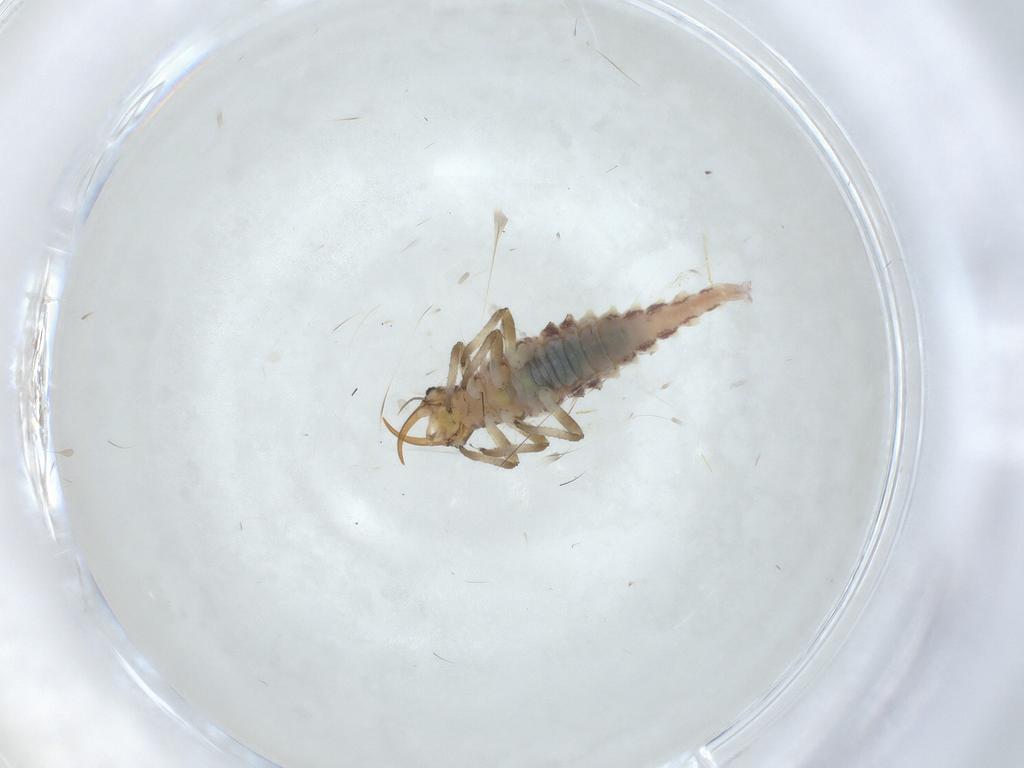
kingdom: Animalia
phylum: Arthropoda
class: Insecta
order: Neuroptera
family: Chrysopidae
